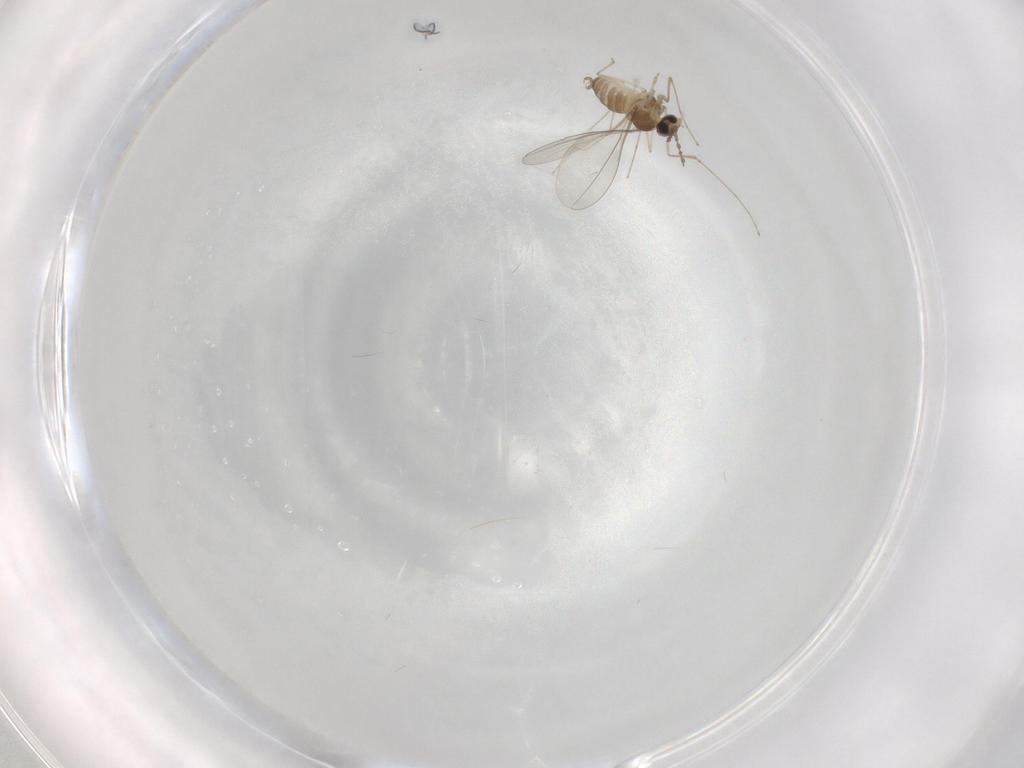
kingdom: Animalia
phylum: Arthropoda
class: Insecta
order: Diptera
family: Cecidomyiidae
